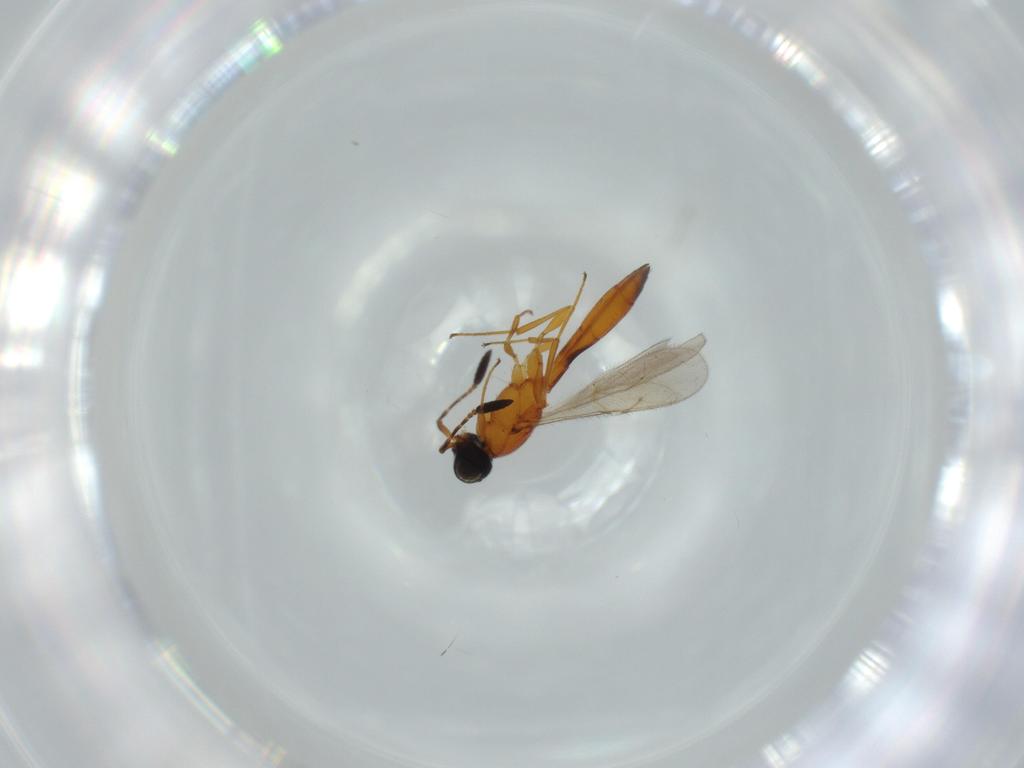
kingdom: Animalia
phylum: Arthropoda
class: Insecta
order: Hymenoptera
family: Scelionidae
